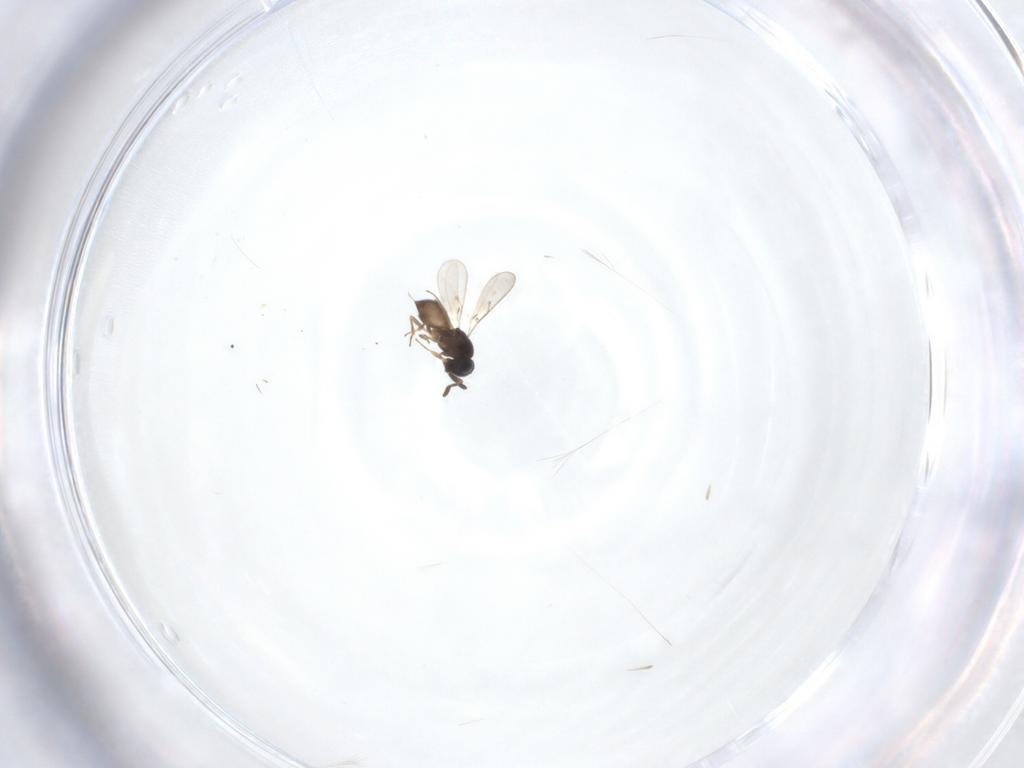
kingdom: Animalia
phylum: Arthropoda
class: Insecta
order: Hymenoptera
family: Scelionidae
